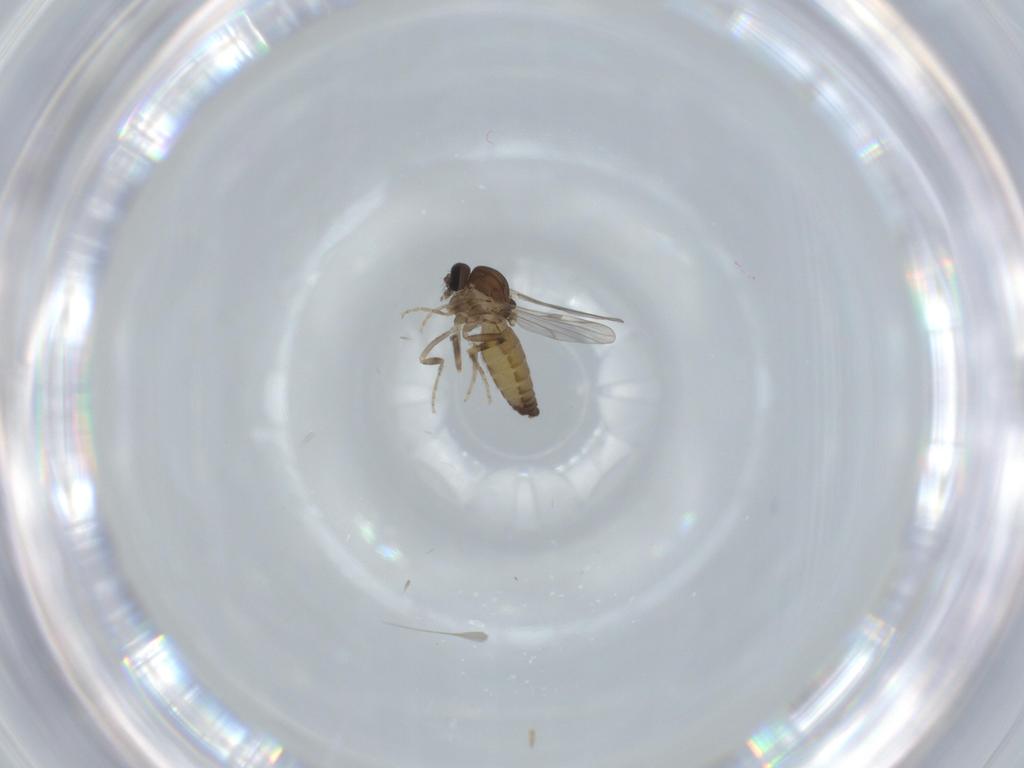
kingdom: Animalia
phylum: Arthropoda
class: Insecta
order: Diptera
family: Ceratopogonidae
